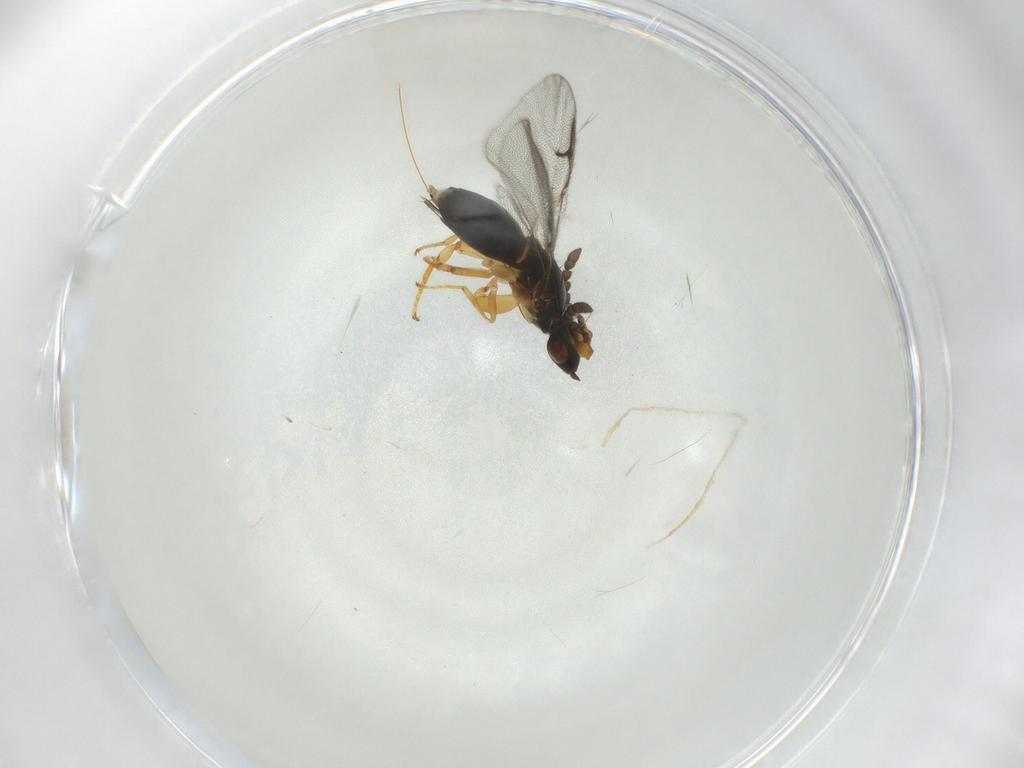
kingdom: Animalia
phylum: Arthropoda
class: Insecta
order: Hymenoptera
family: Agaonidae
